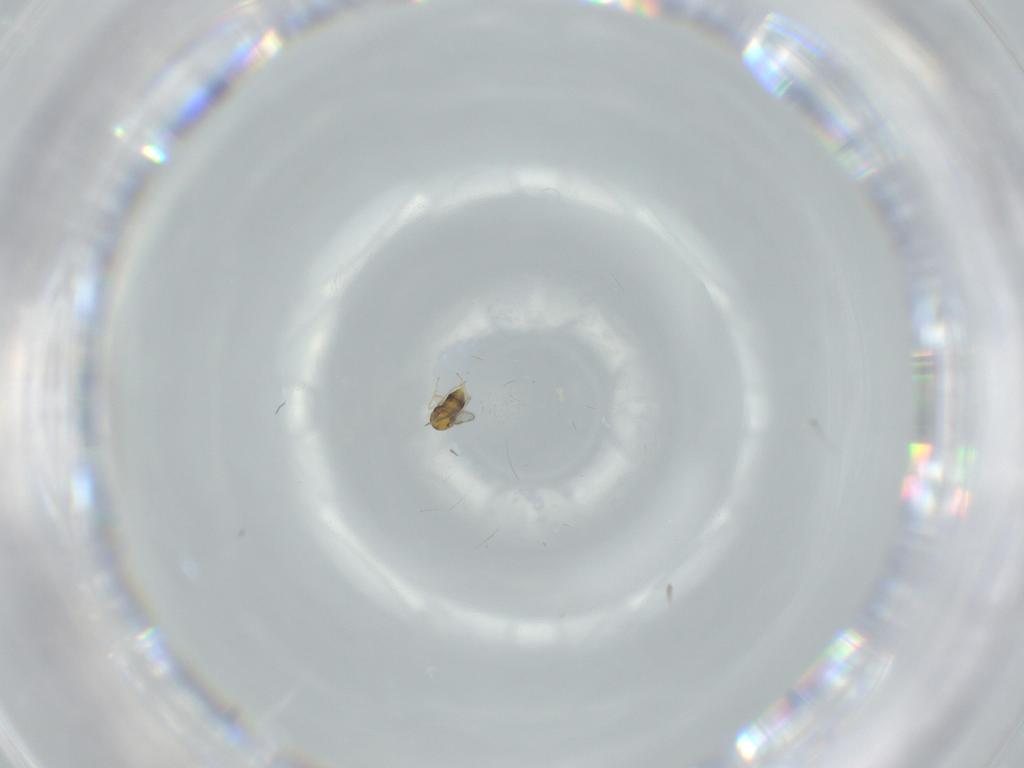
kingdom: Animalia
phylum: Arthropoda
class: Insecta
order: Hymenoptera
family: Aphelinidae
